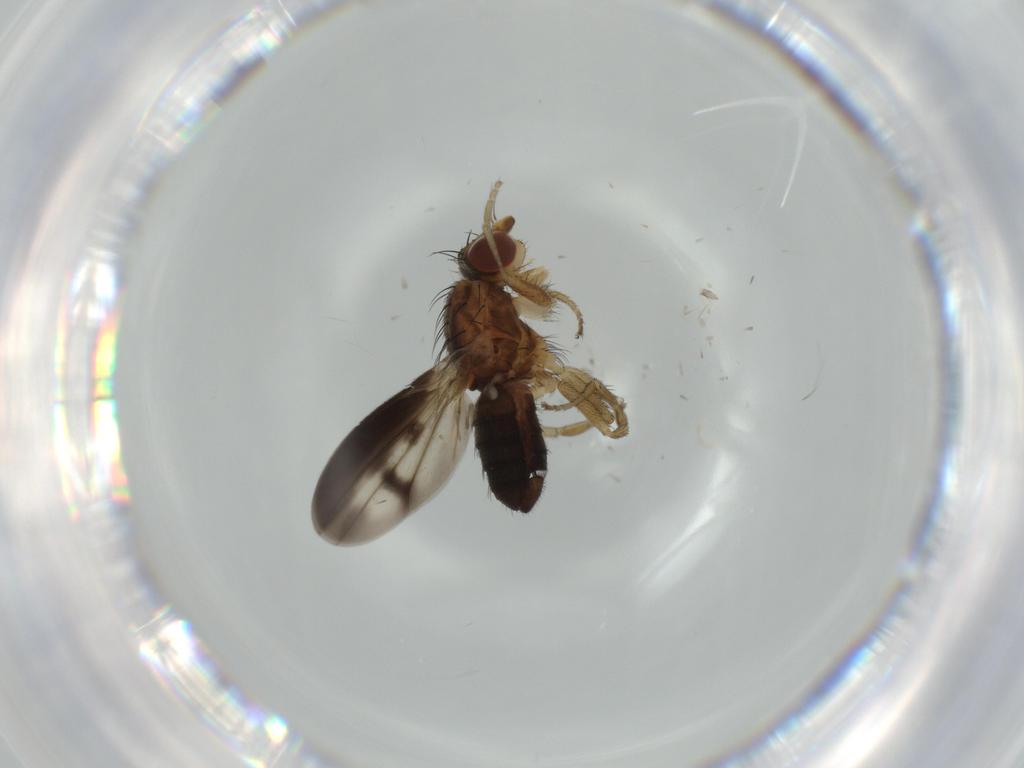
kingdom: Animalia
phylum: Arthropoda
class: Insecta
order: Diptera
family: Heleomyzidae
